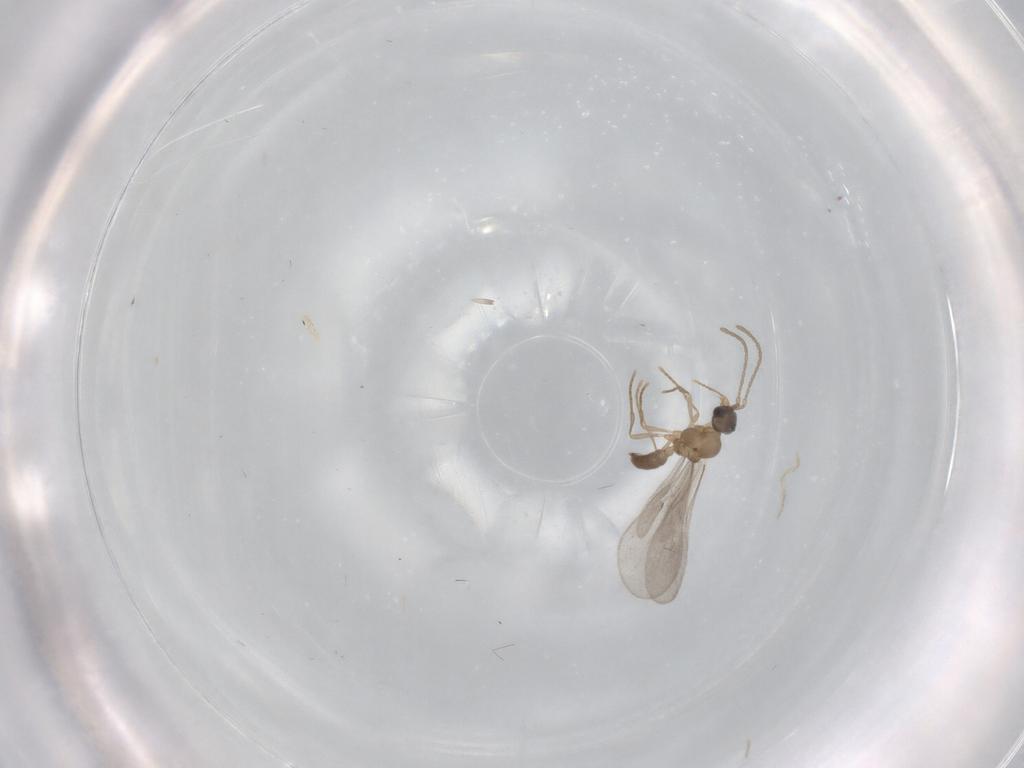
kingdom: Animalia
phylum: Arthropoda
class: Insecta
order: Hymenoptera
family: Formicidae
